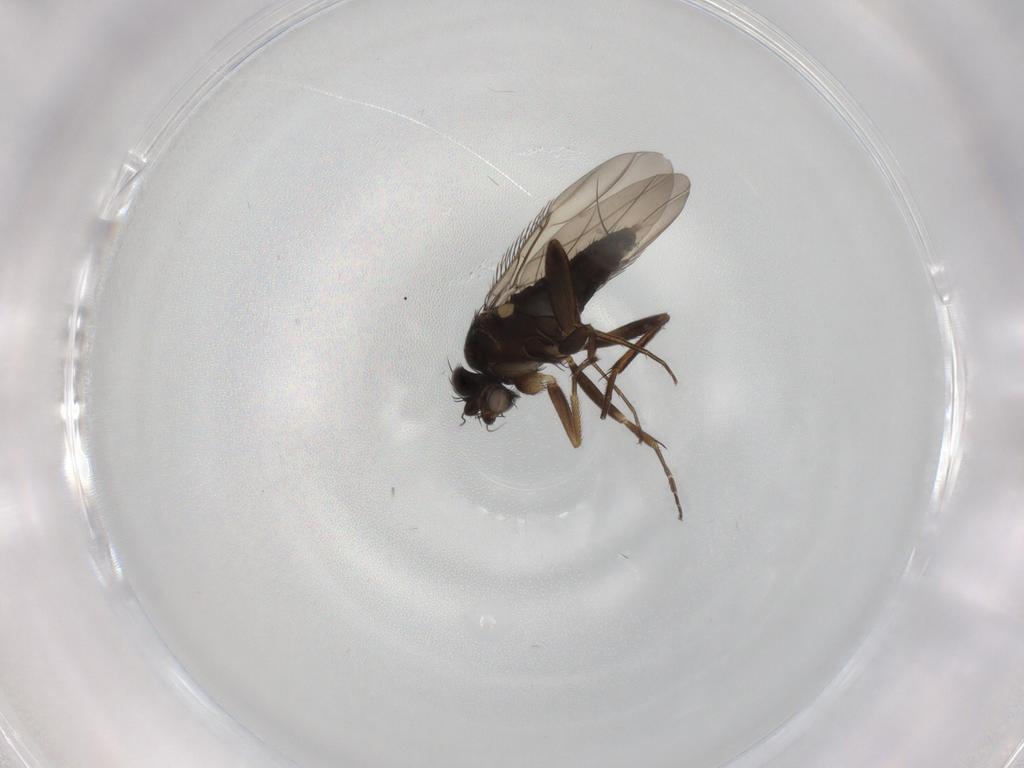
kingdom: Animalia
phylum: Arthropoda
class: Insecta
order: Diptera
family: Phoridae
